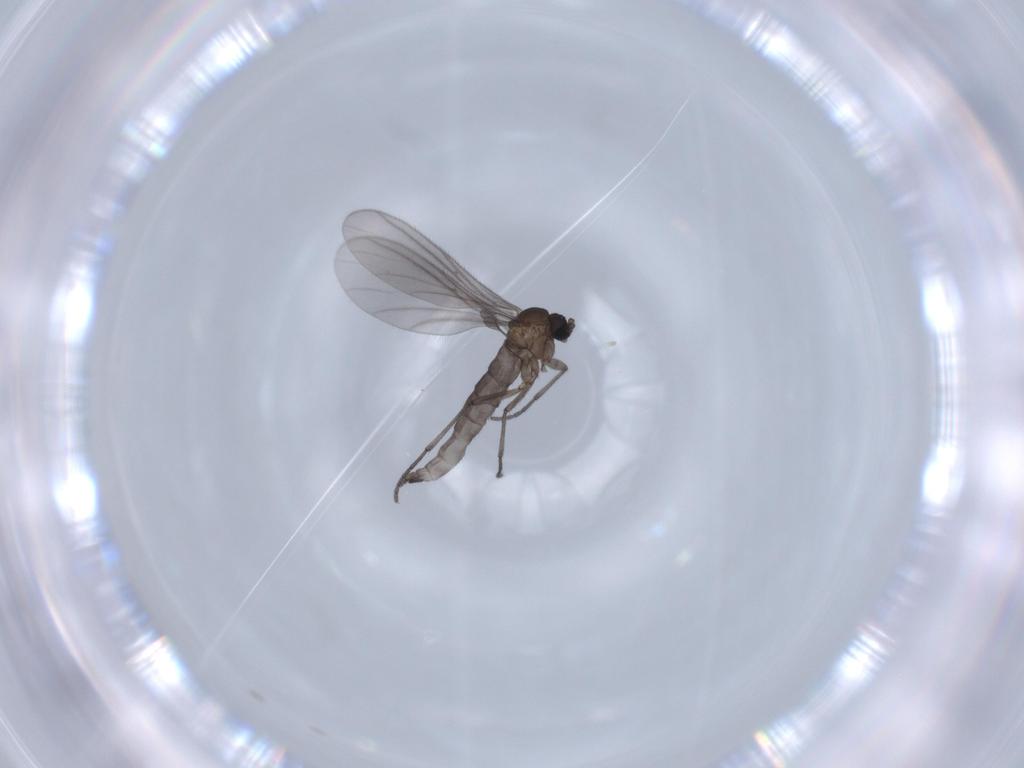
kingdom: Animalia
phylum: Arthropoda
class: Insecta
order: Diptera
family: Sciaridae
